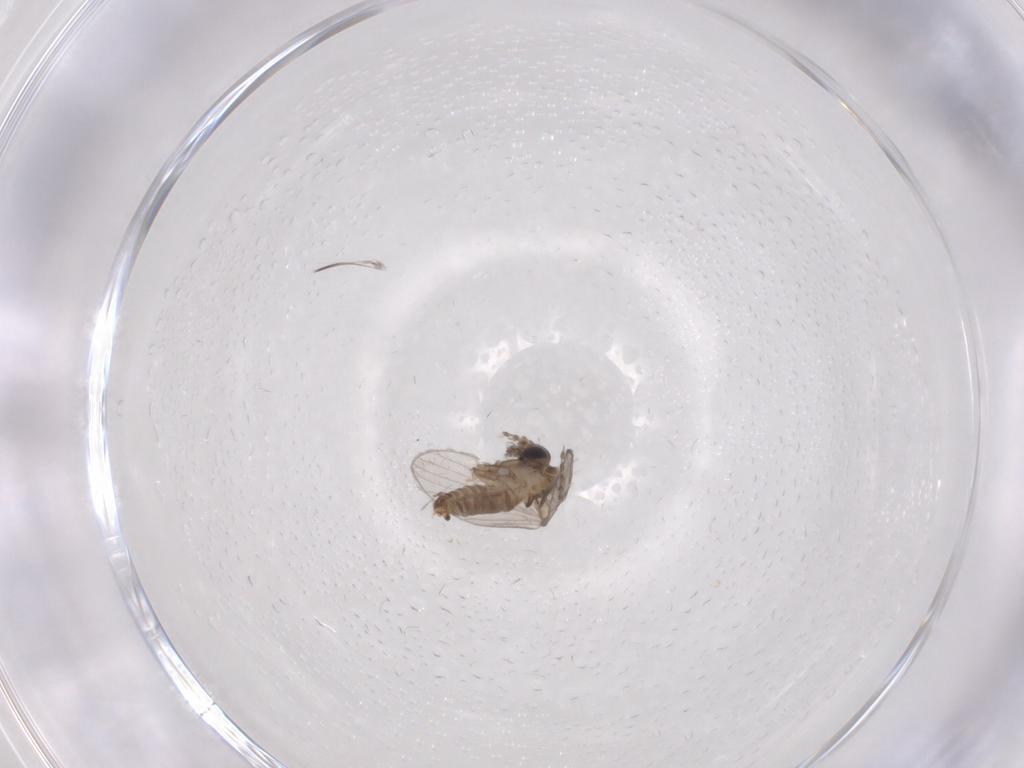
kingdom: Animalia
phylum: Arthropoda
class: Insecta
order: Diptera
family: Psychodidae
